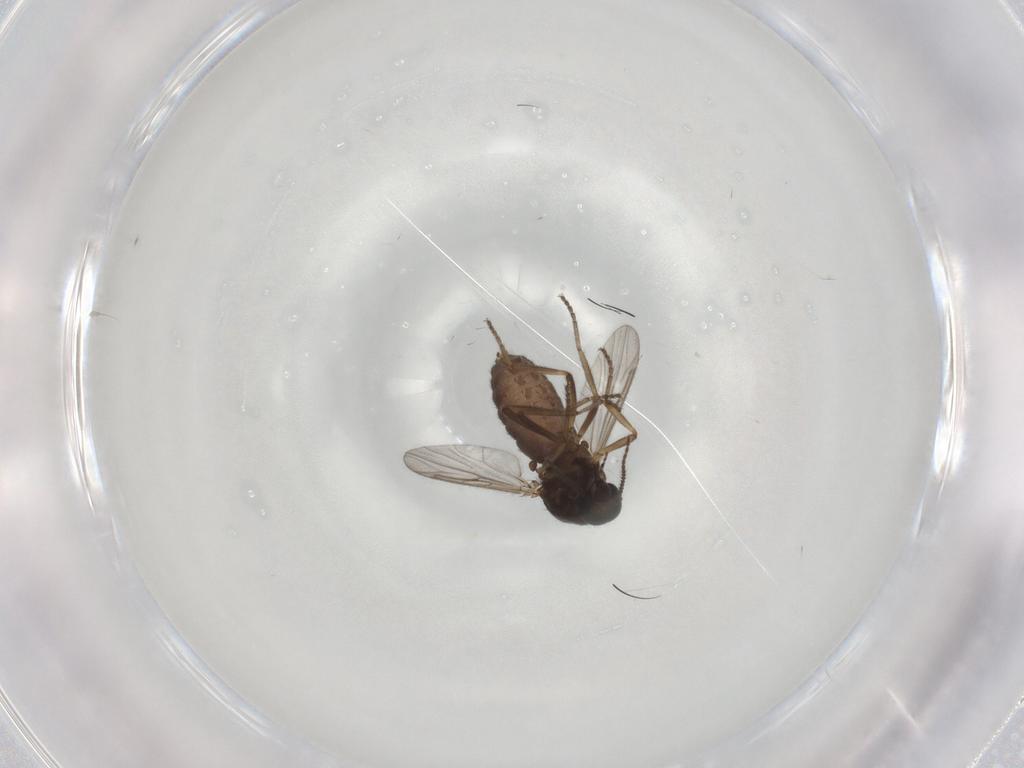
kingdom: Animalia
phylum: Arthropoda
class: Insecta
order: Diptera
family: Ceratopogonidae
